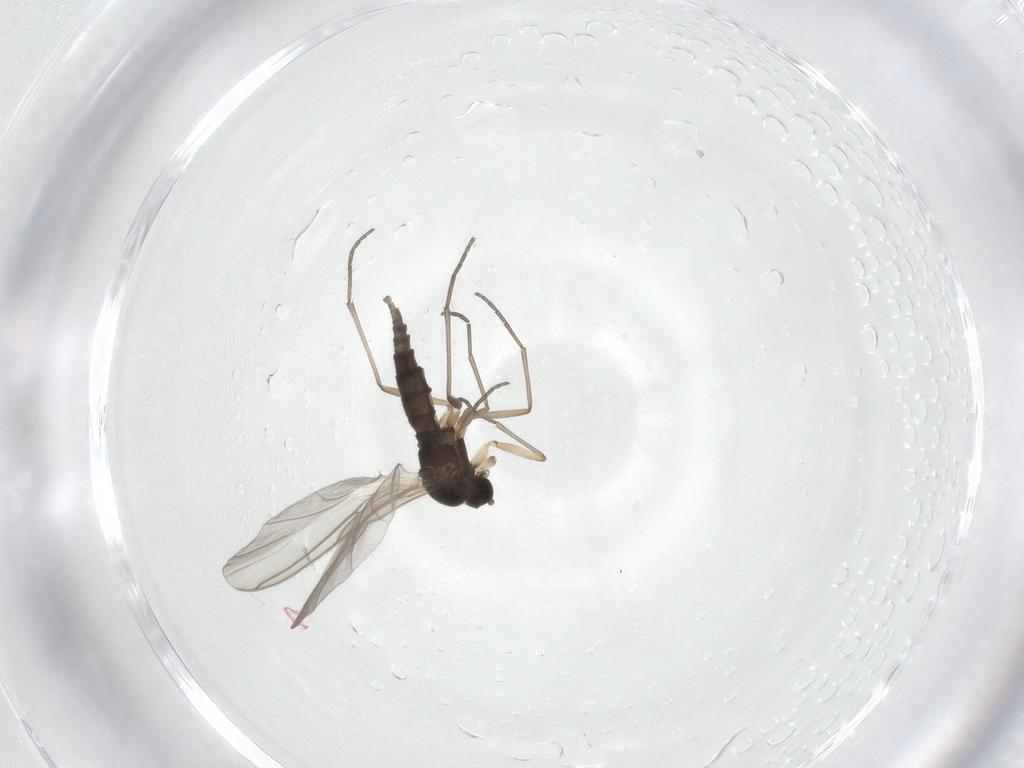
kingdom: Animalia
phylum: Arthropoda
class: Insecta
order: Diptera
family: Sciaridae
